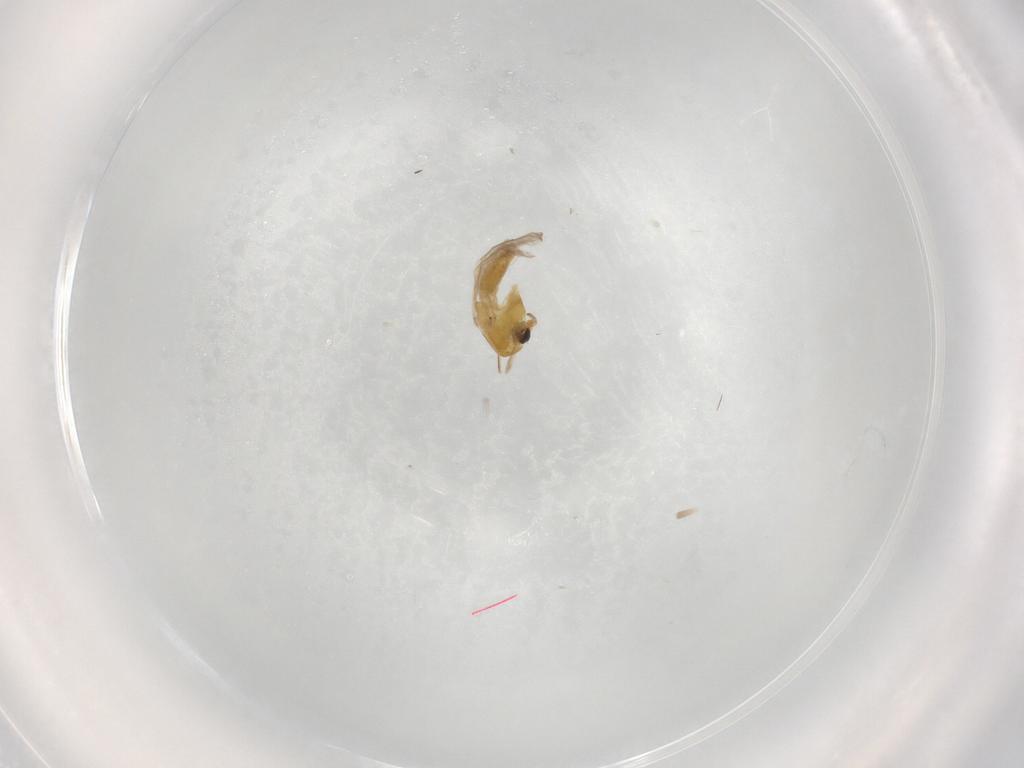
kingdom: Animalia
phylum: Arthropoda
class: Insecta
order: Diptera
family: Chironomidae
